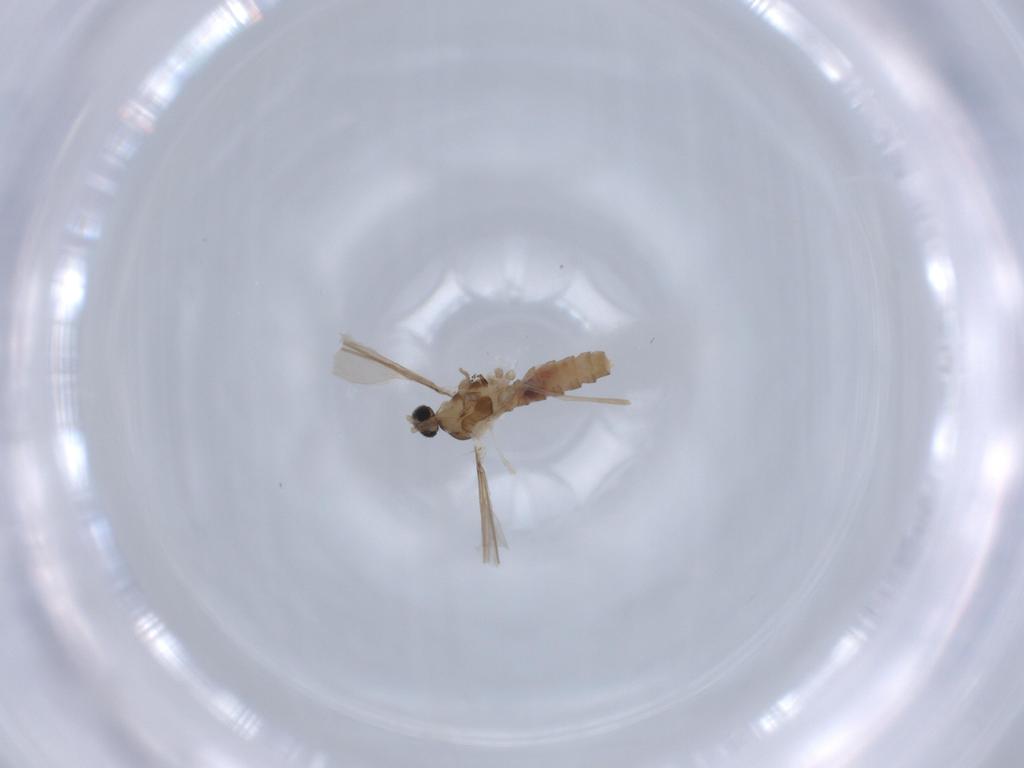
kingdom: Animalia
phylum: Arthropoda
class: Insecta
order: Diptera
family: Cecidomyiidae
